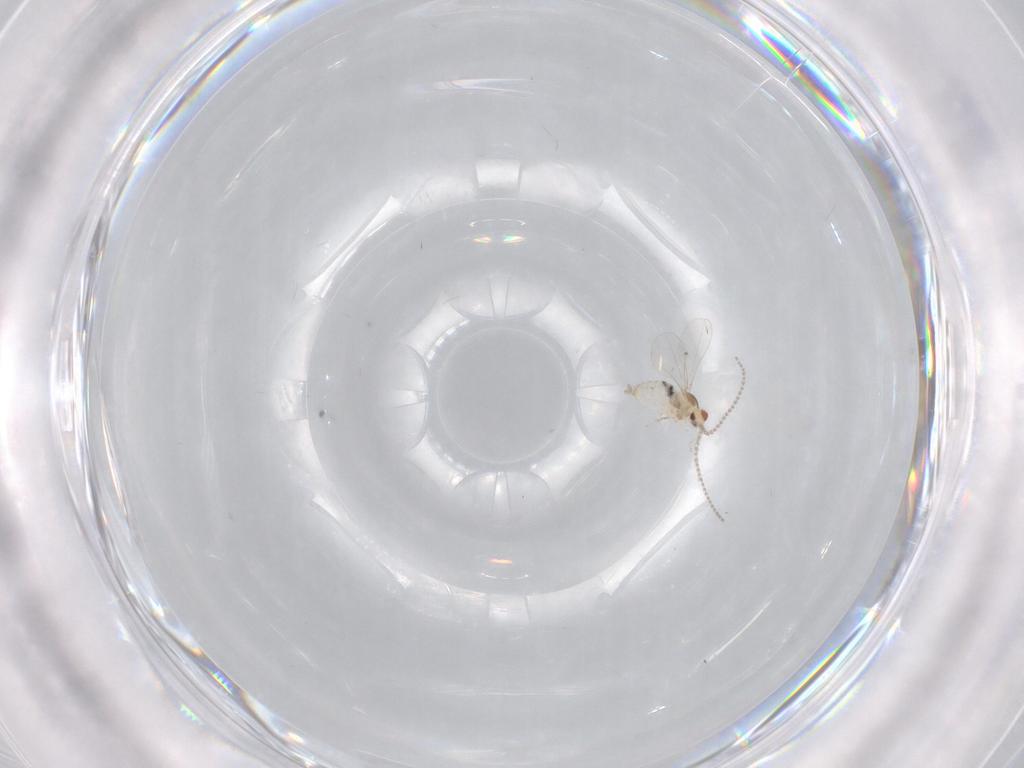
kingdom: Animalia
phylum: Arthropoda
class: Insecta
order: Diptera
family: Cecidomyiidae
